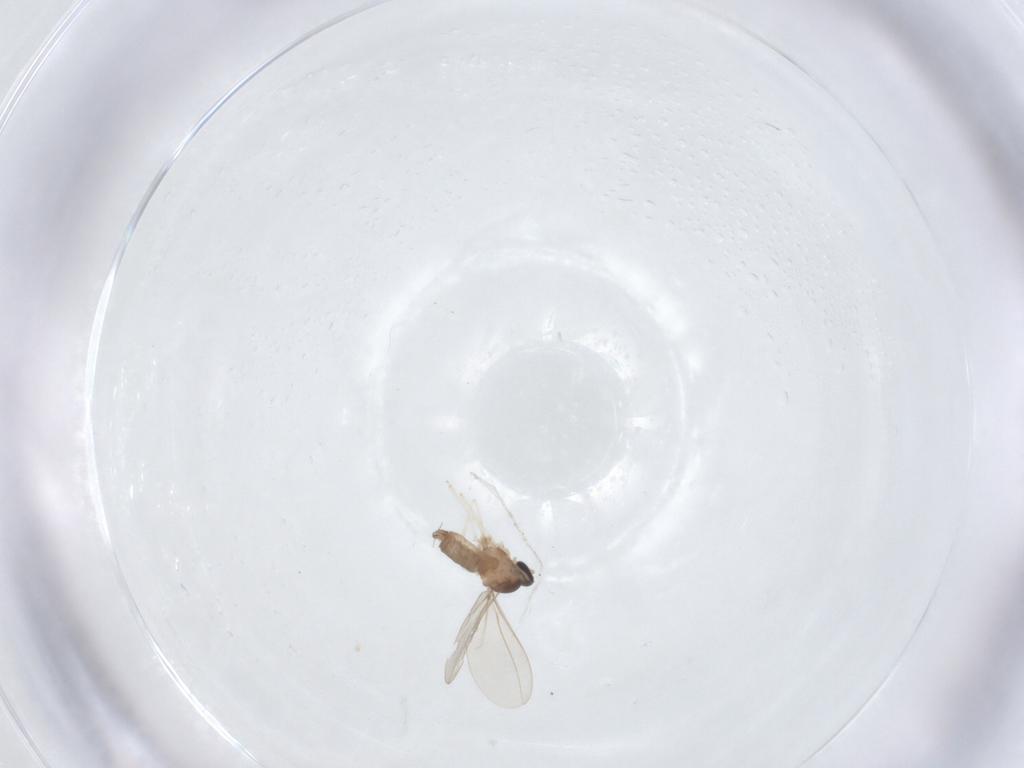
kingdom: Animalia
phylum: Arthropoda
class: Insecta
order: Diptera
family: Cecidomyiidae
